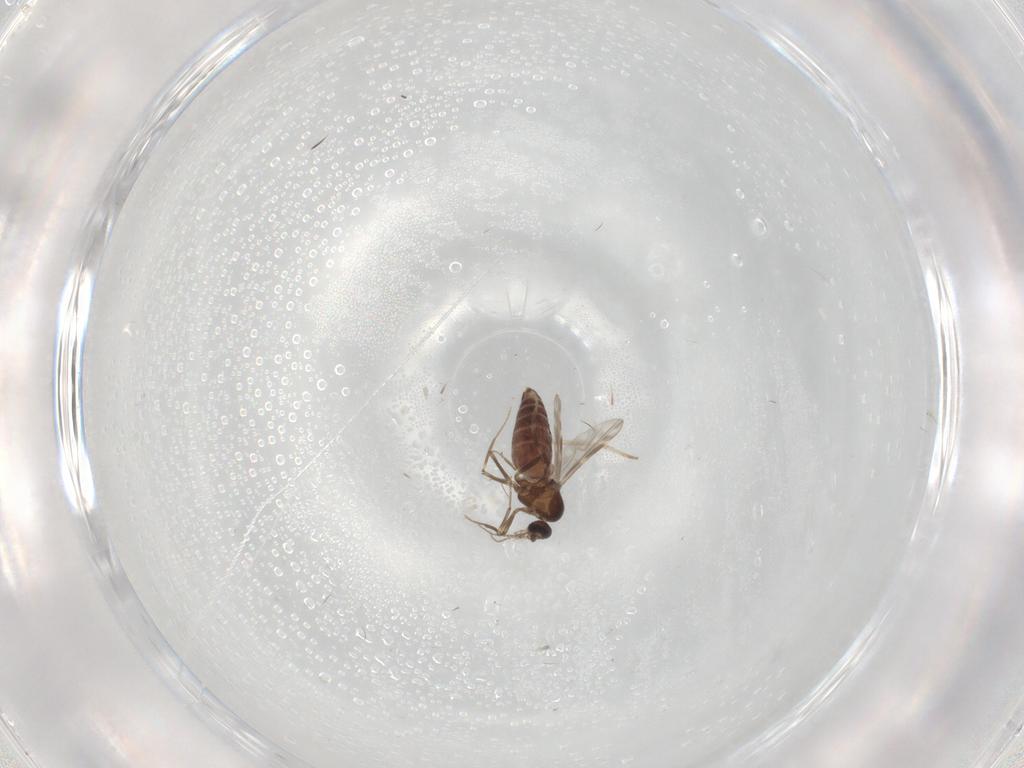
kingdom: Animalia
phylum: Arthropoda
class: Insecta
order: Diptera
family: Ceratopogonidae
